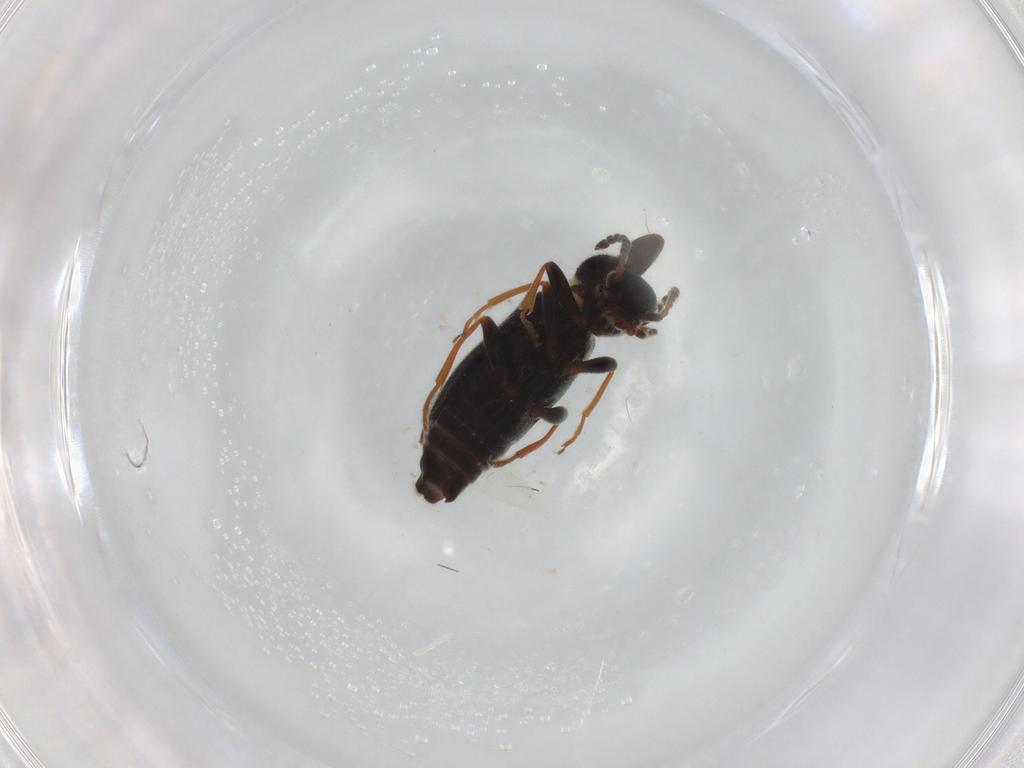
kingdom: Animalia
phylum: Arthropoda
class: Insecta
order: Coleoptera
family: Anthicidae
